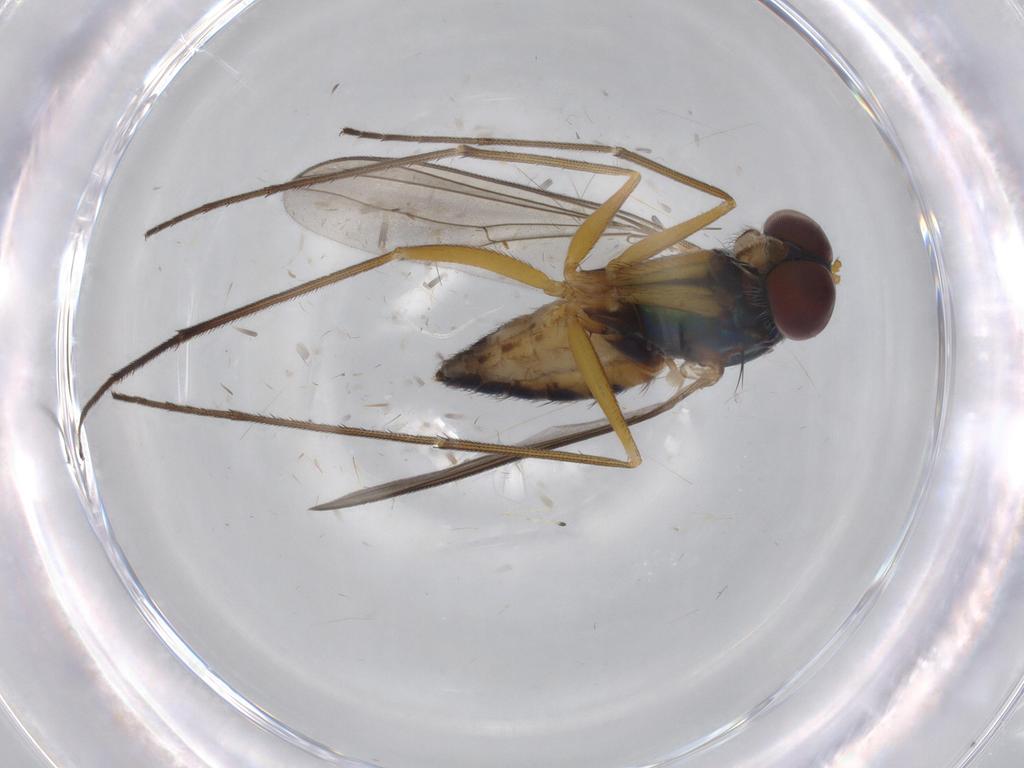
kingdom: Animalia
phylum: Arthropoda
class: Insecta
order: Diptera
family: Dolichopodidae
